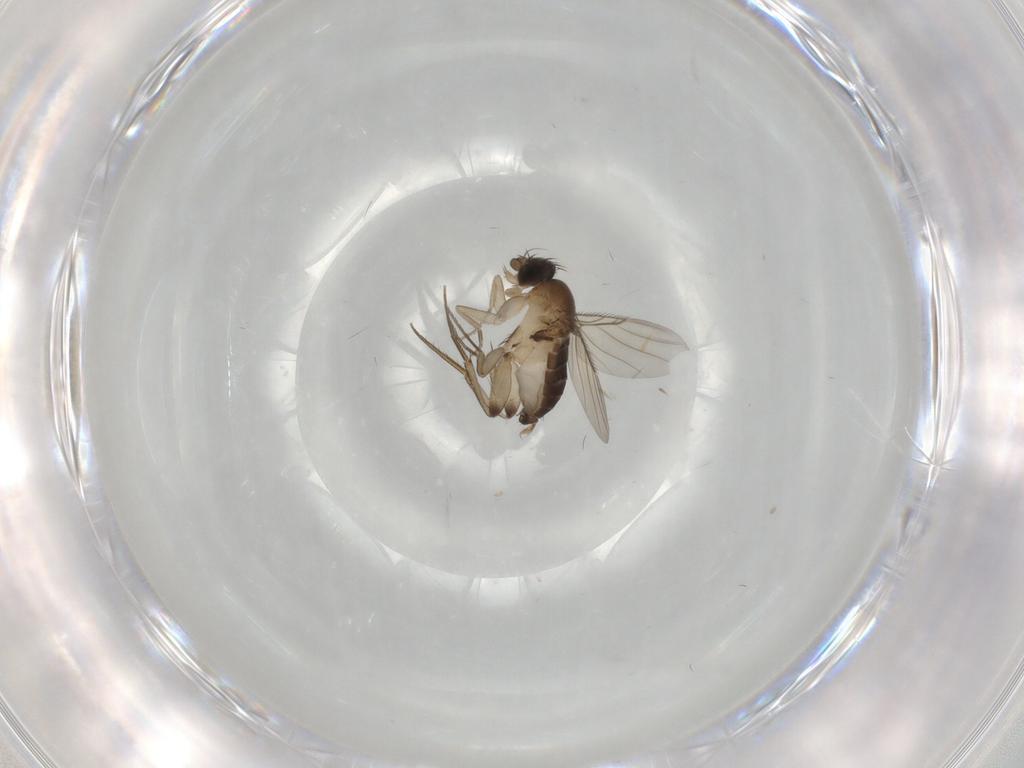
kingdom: Animalia
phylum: Arthropoda
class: Insecta
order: Diptera
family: Phoridae
